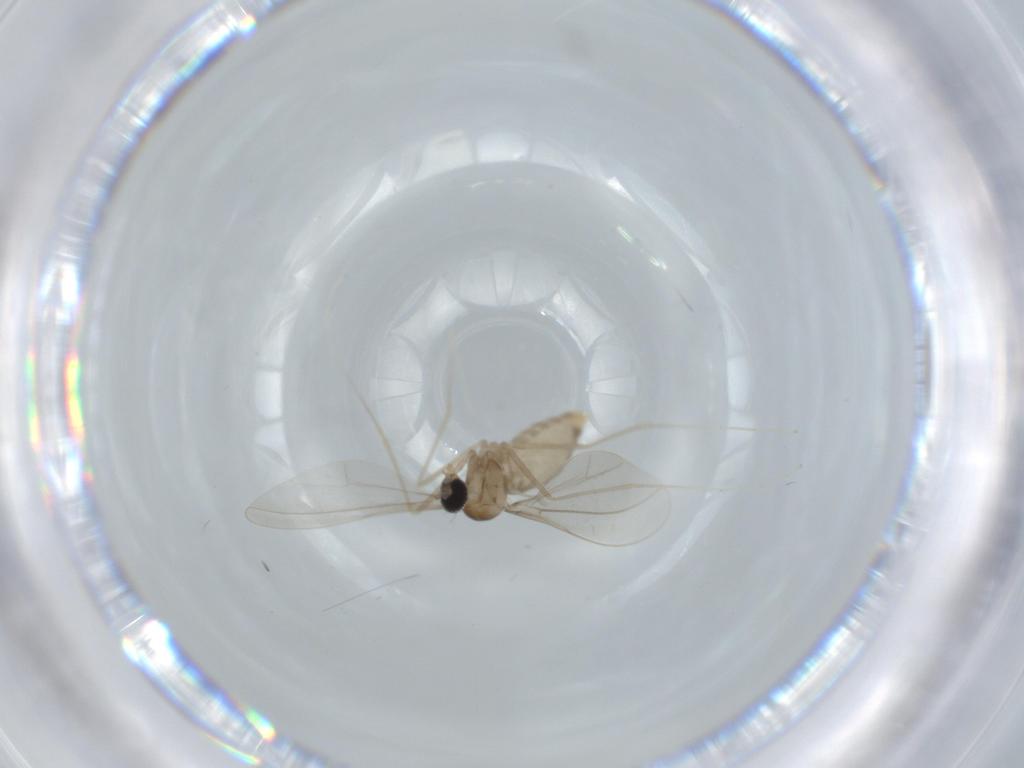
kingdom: Animalia
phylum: Arthropoda
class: Insecta
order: Diptera
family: Cecidomyiidae
